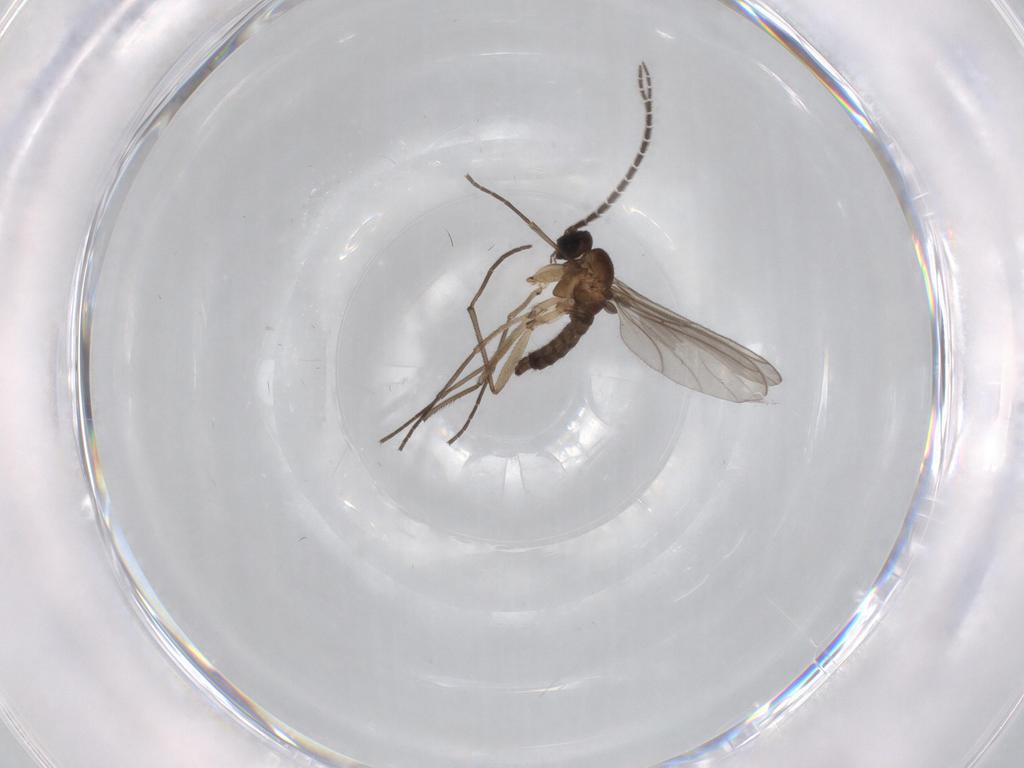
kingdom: Animalia
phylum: Arthropoda
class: Insecta
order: Diptera
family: Sciaridae
